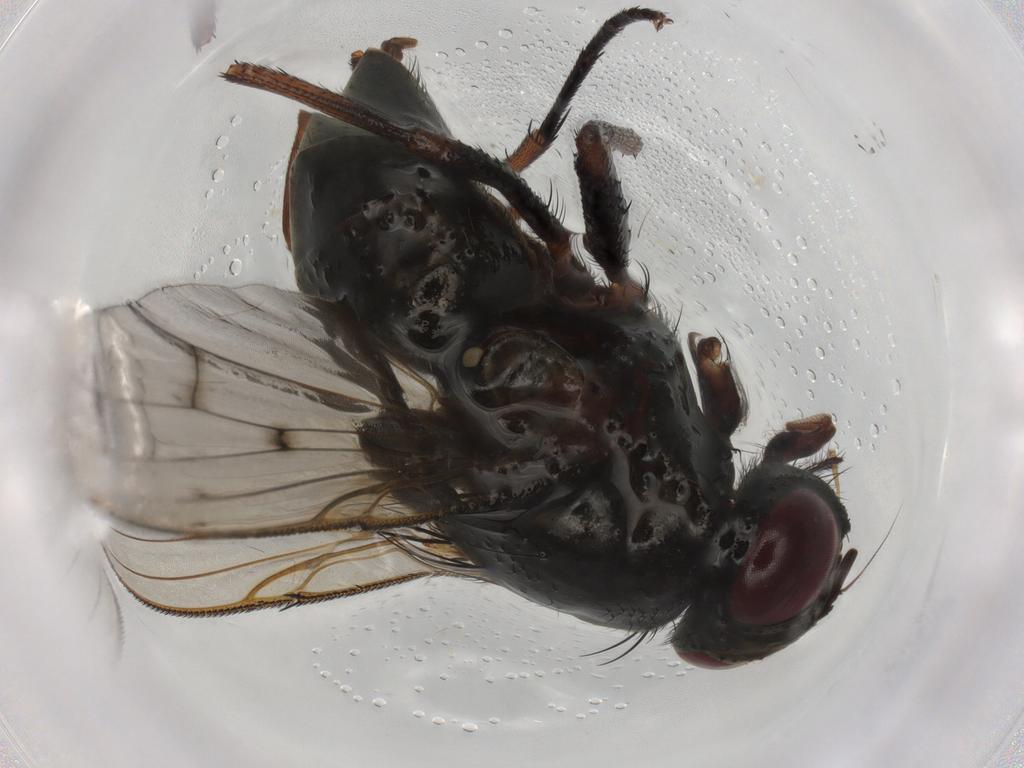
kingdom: Animalia
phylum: Arthropoda
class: Insecta
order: Diptera
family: Muscidae
